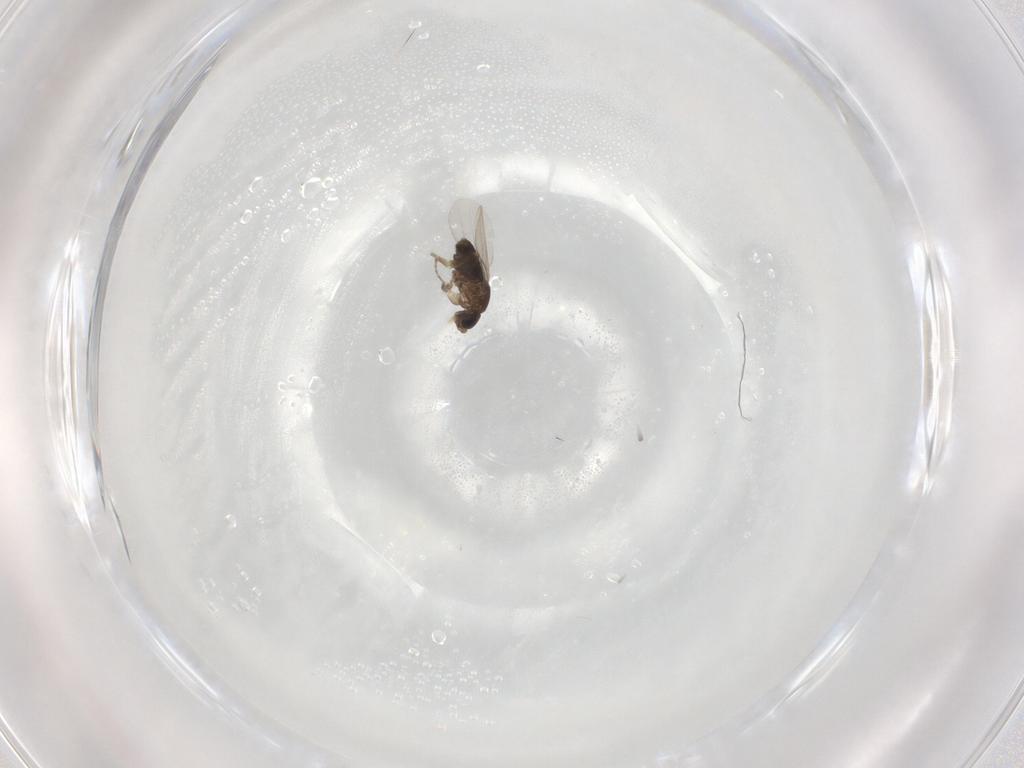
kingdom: Animalia
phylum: Arthropoda
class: Insecta
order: Diptera
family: Phoridae
